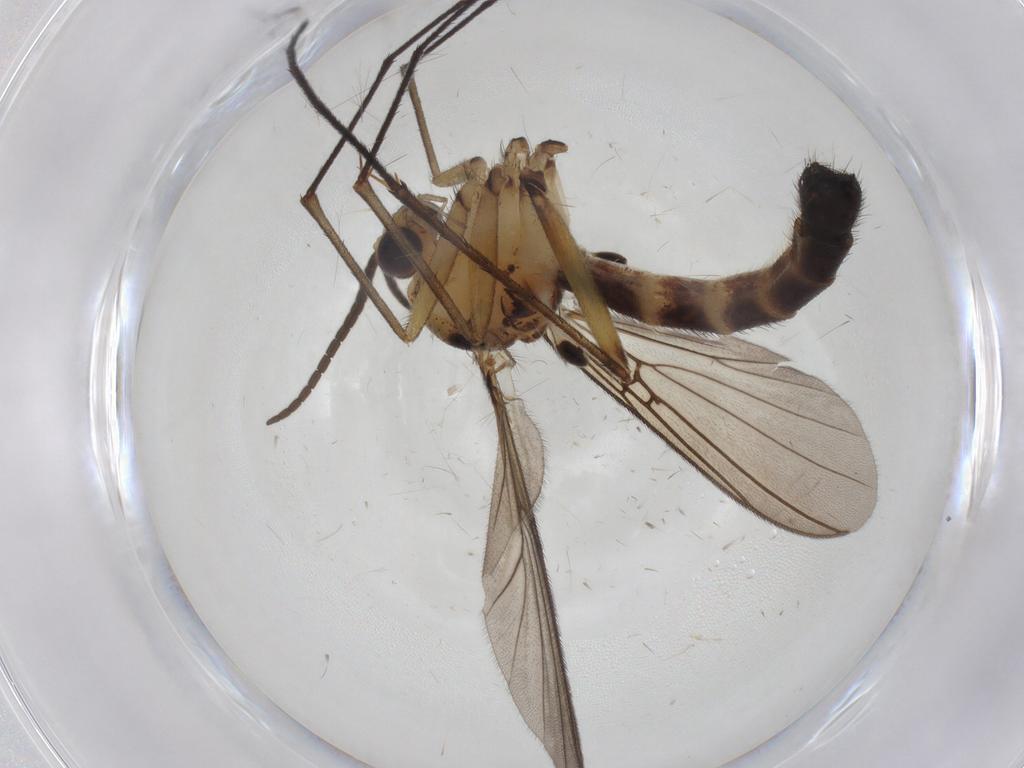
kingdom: Animalia
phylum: Arthropoda
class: Insecta
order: Diptera
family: Mycetophilidae
